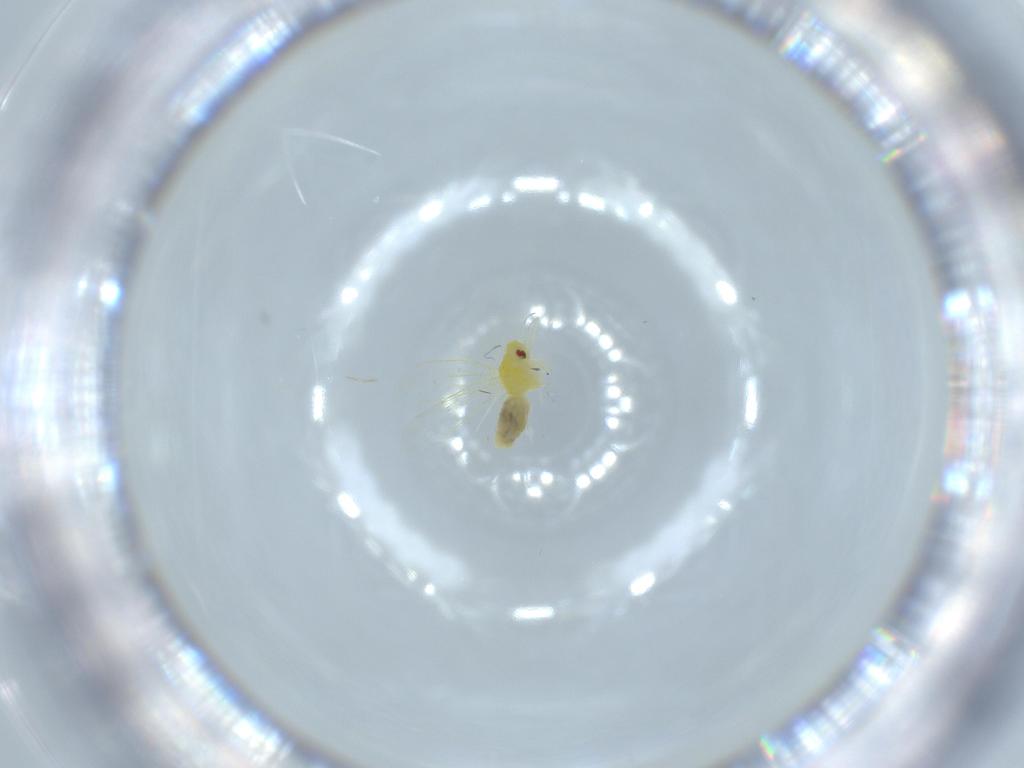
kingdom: Animalia
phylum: Arthropoda
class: Insecta
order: Hemiptera
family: Aleyrodidae
